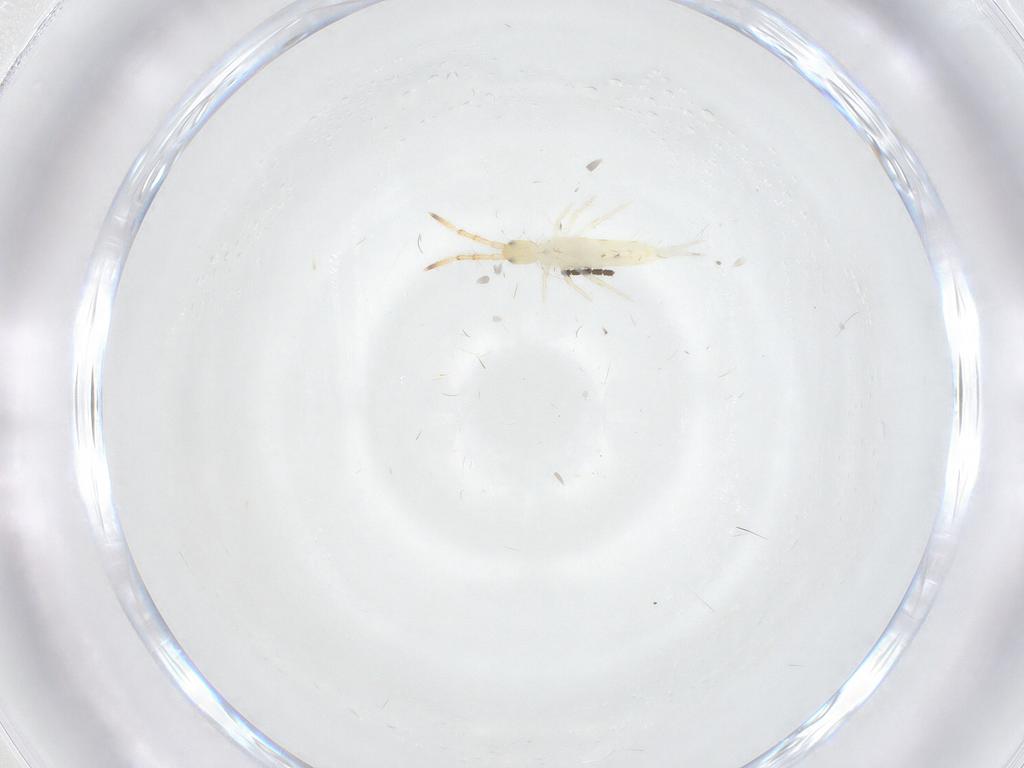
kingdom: Animalia
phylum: Arthropoda
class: Collembola
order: Entomobryomorpha
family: Entomobryidae
